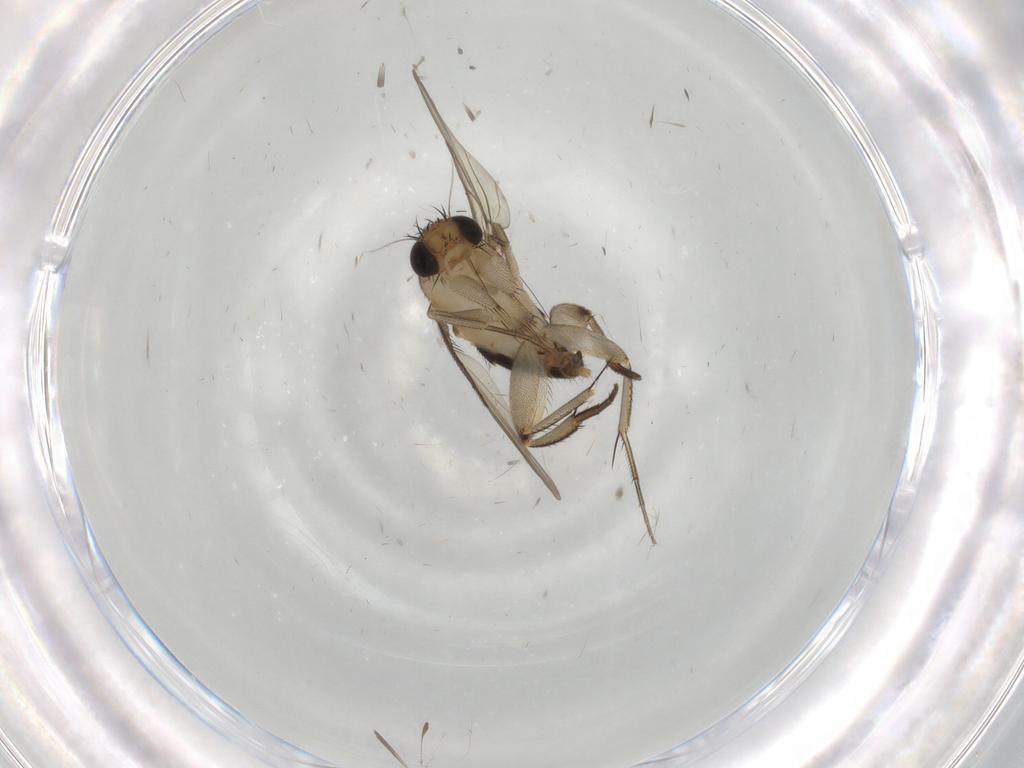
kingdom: Animalia
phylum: Arthropoda
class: Insecta
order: Diptera
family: Phoridae
